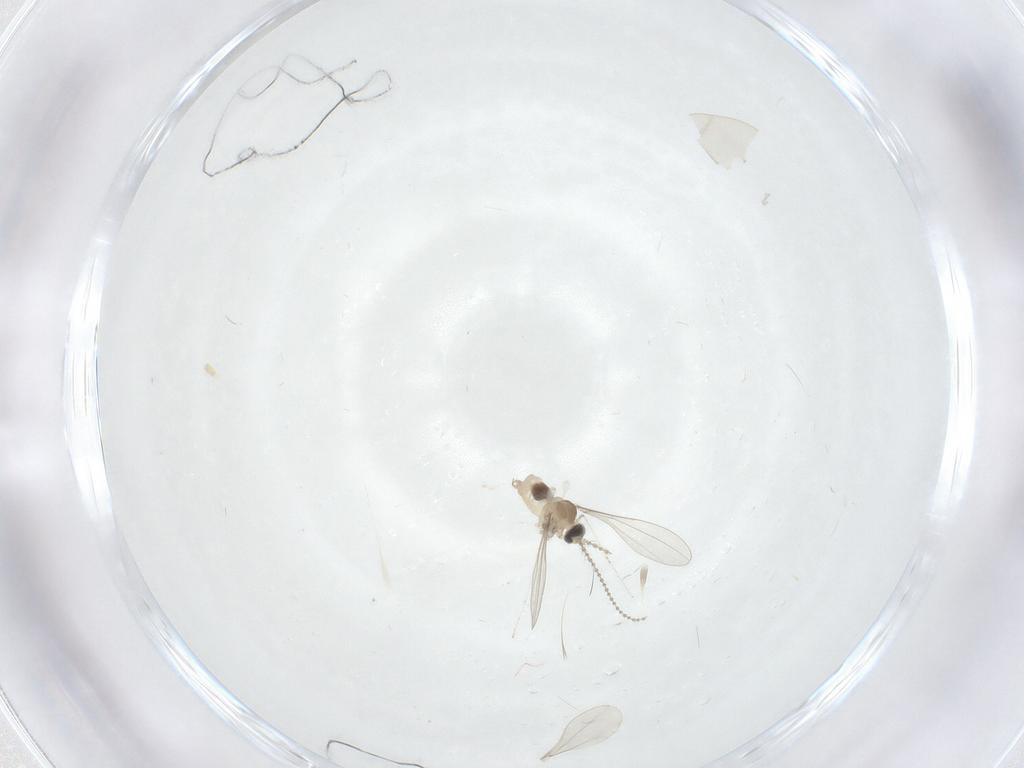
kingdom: Animalia
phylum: Arthropoda
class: Insecta
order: Diptera
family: Cecidomyiidae
